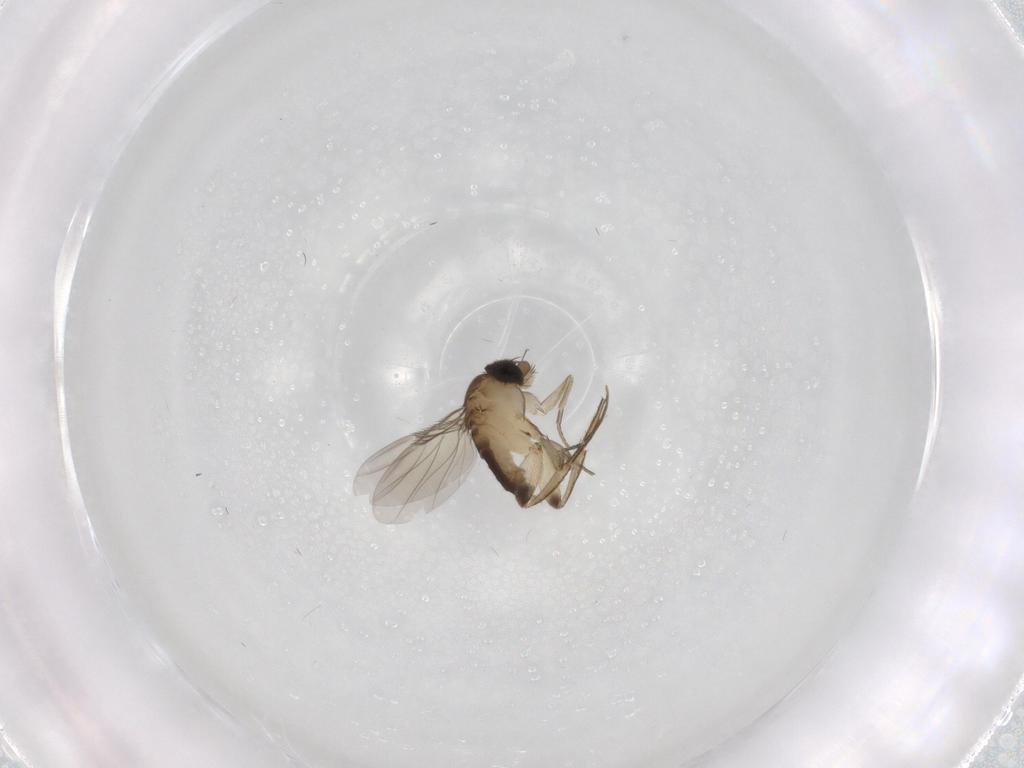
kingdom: Animalia
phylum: Arthropoda
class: Insecta
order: Diptera
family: Phoridae
